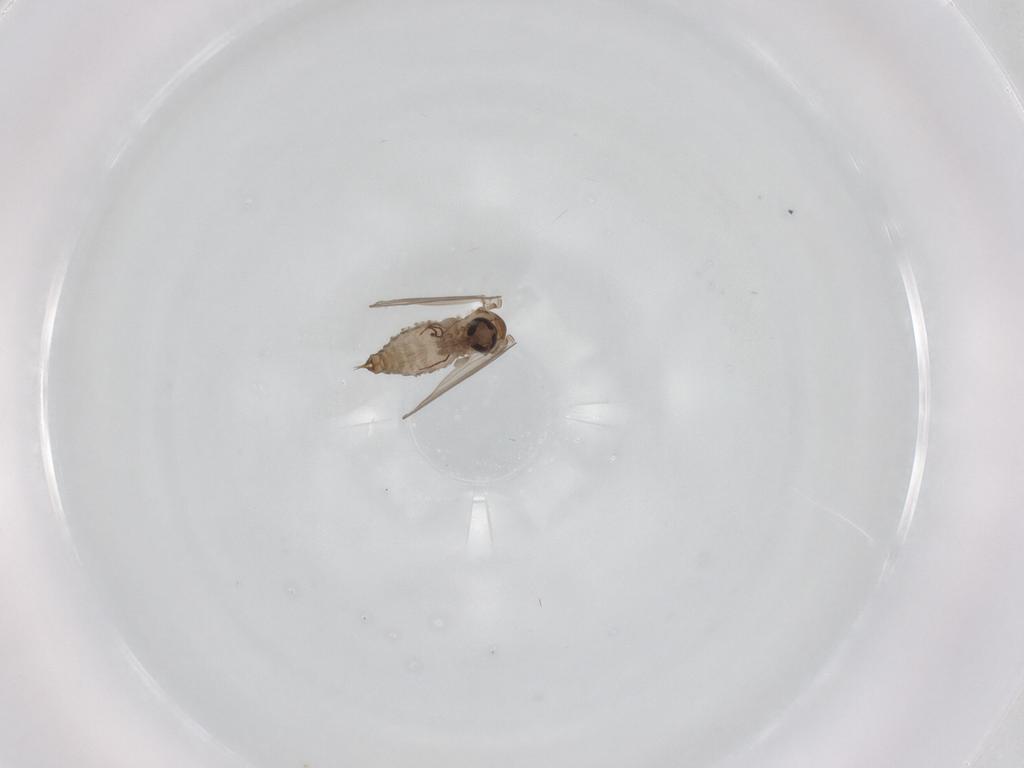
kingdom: Animalia
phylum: Arthropoda
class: Insecta
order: Diptera
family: Psychodidae
